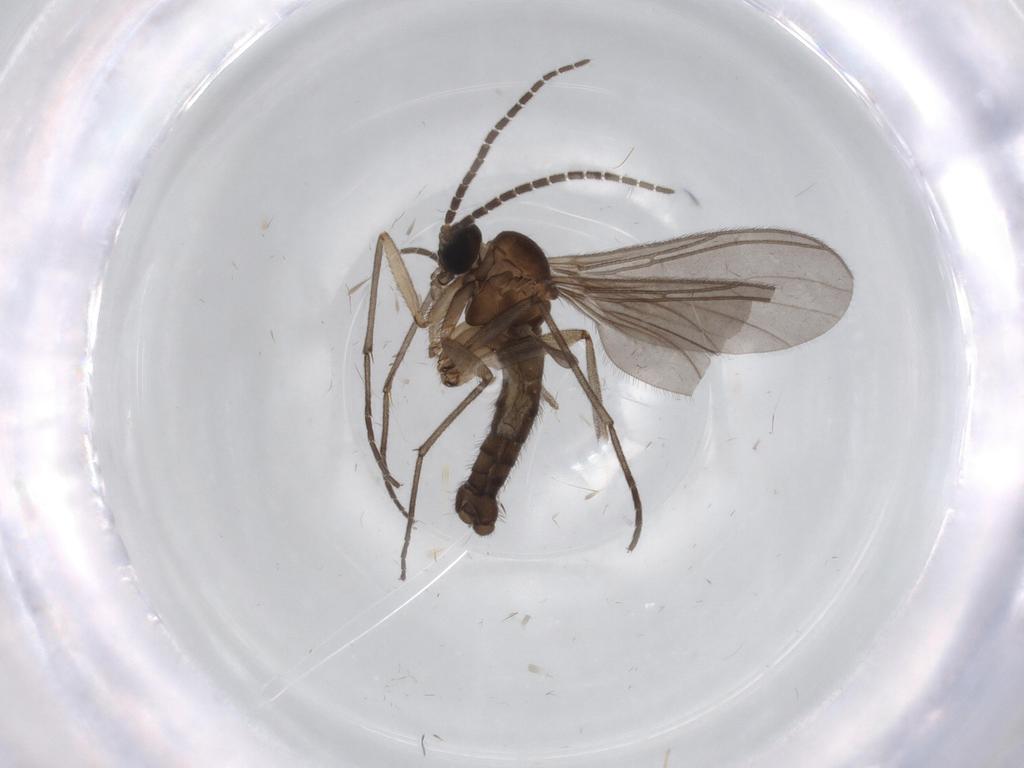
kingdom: Animalia
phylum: Arthropoda
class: Insecta
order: Diptera
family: Sciaridae
